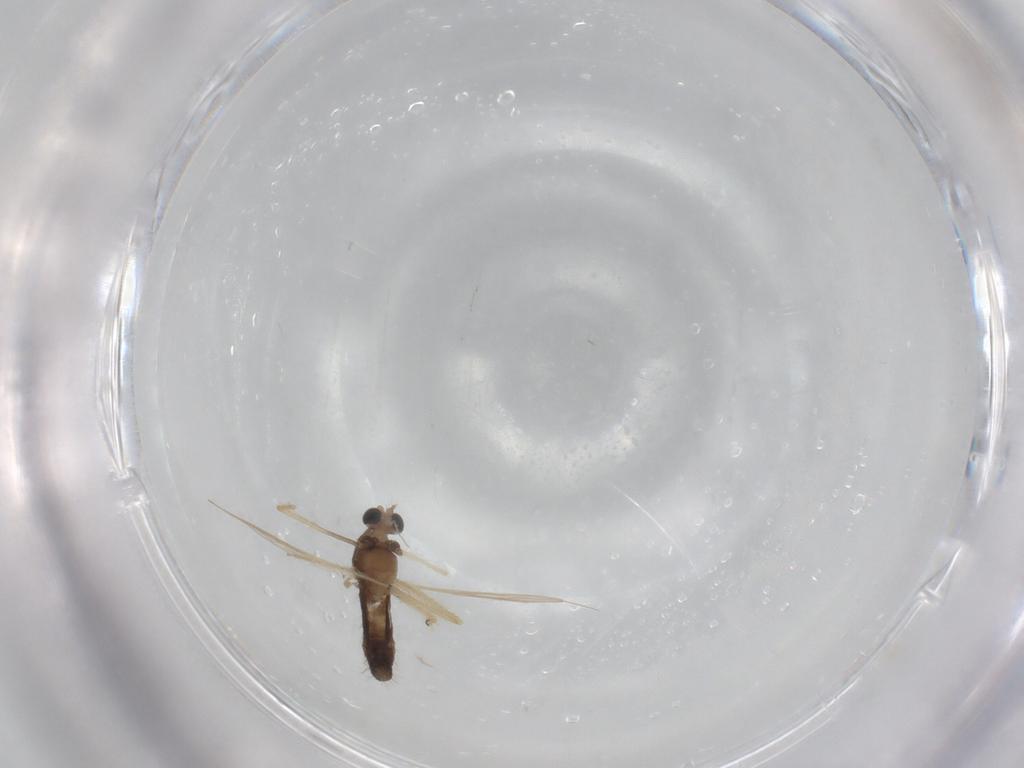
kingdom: Animalia
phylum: Arthropoda
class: Insecta
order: Diptera
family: Chironomidae
